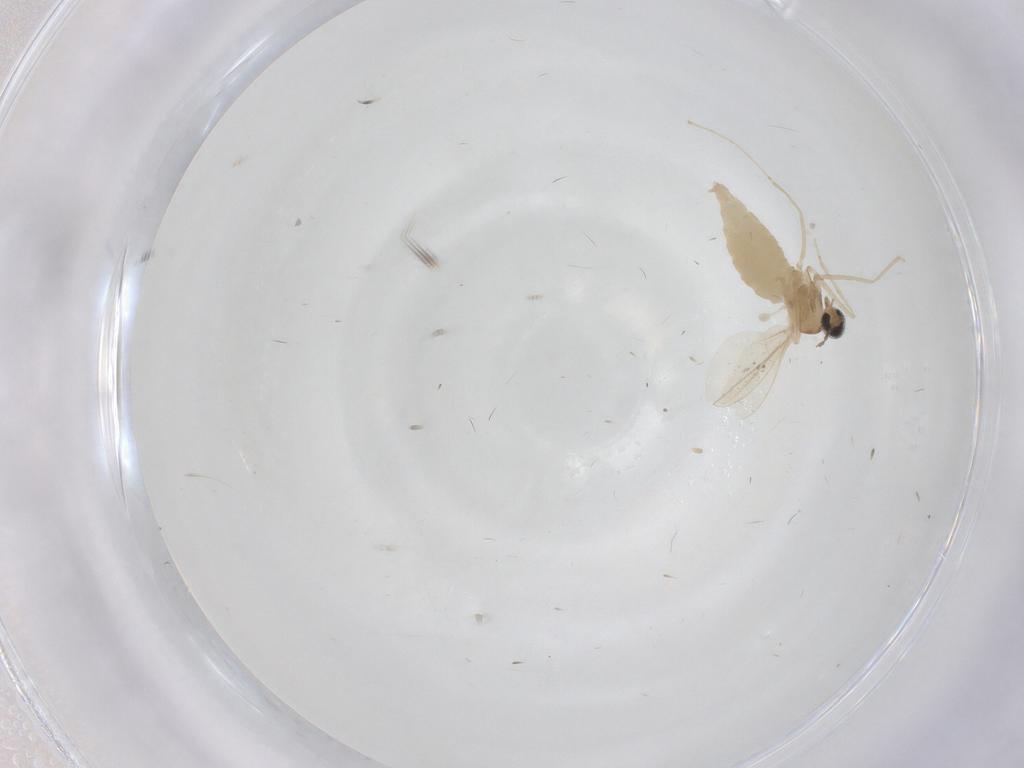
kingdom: Animalia
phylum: Arthropoda
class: Insecta
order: Diptera
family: Cecidomyiidae
